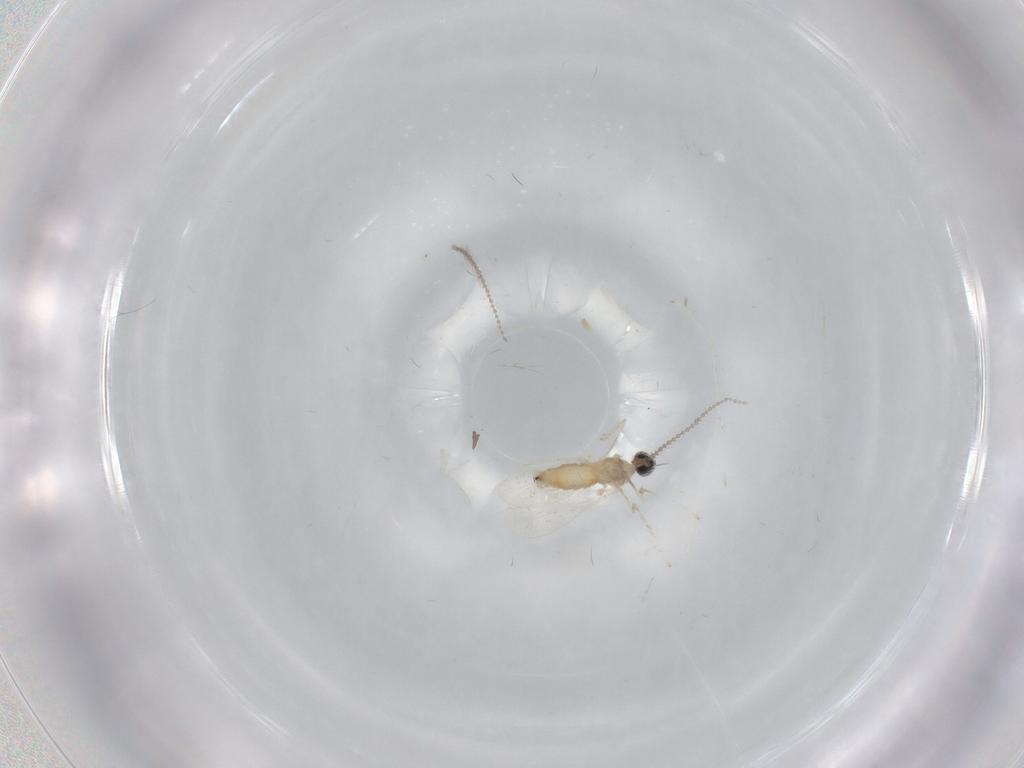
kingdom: Animalia
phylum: Arthropoda
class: Insecta
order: Diptera
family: Cecidomyiidae
